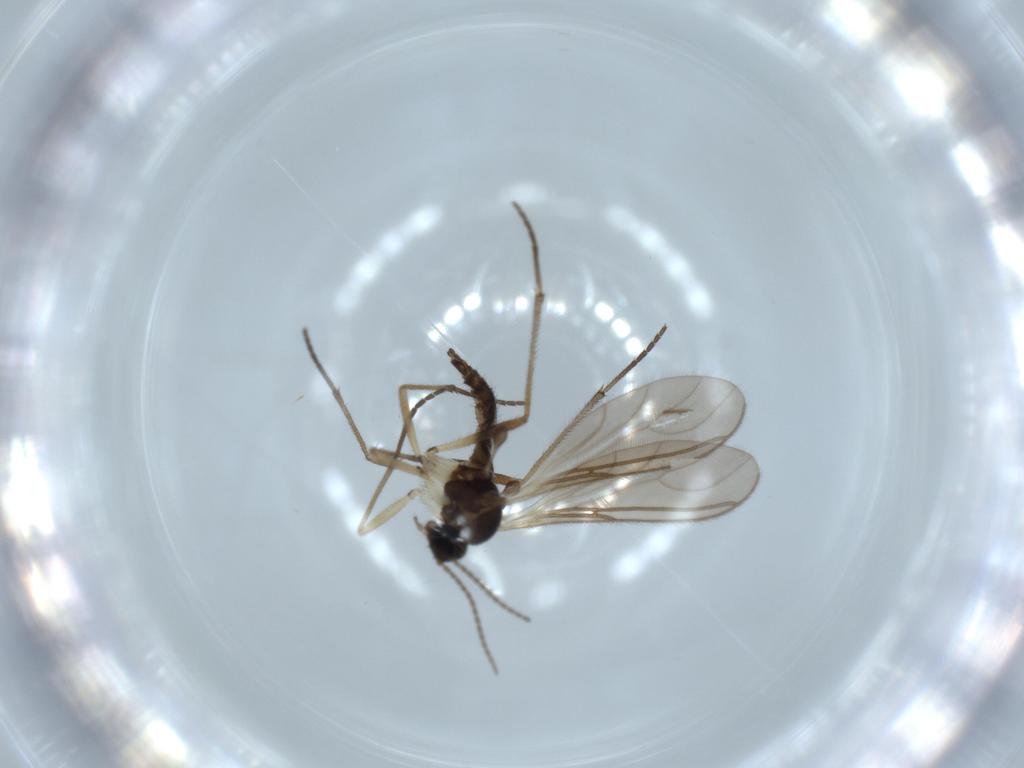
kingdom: Animalia
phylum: Arthropoda
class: Insecta
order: Diptera
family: Sciaridae
